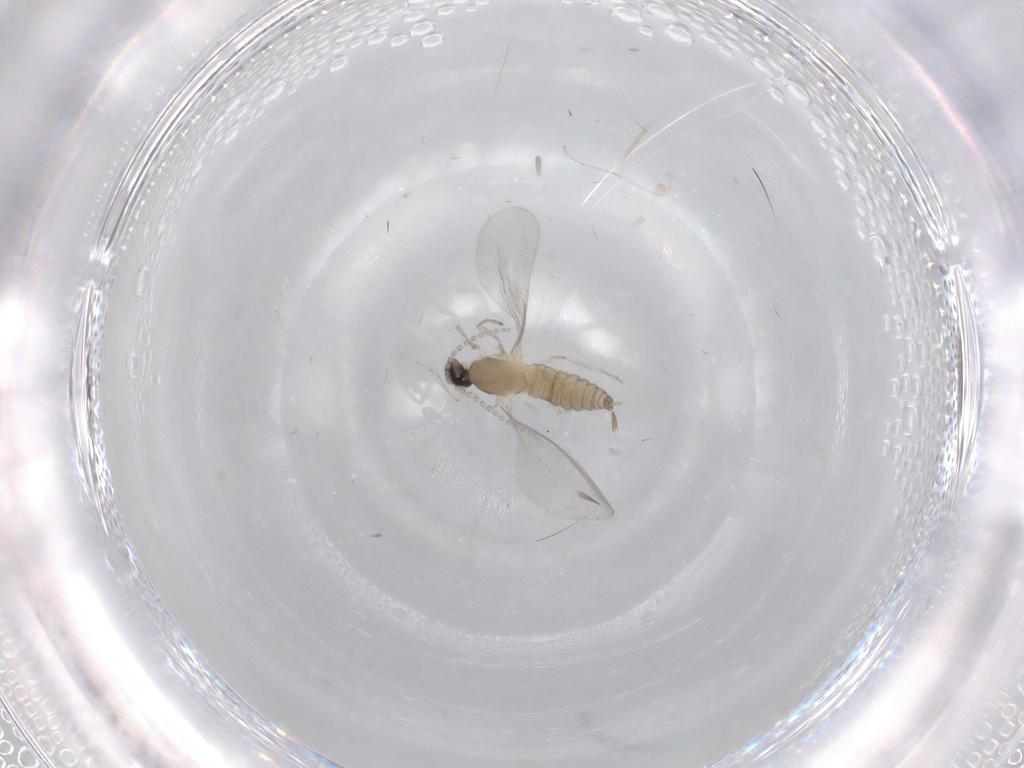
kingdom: Animalia
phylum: Arthropoda
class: Insecta
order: Diptera
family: Cecidomyiidae
